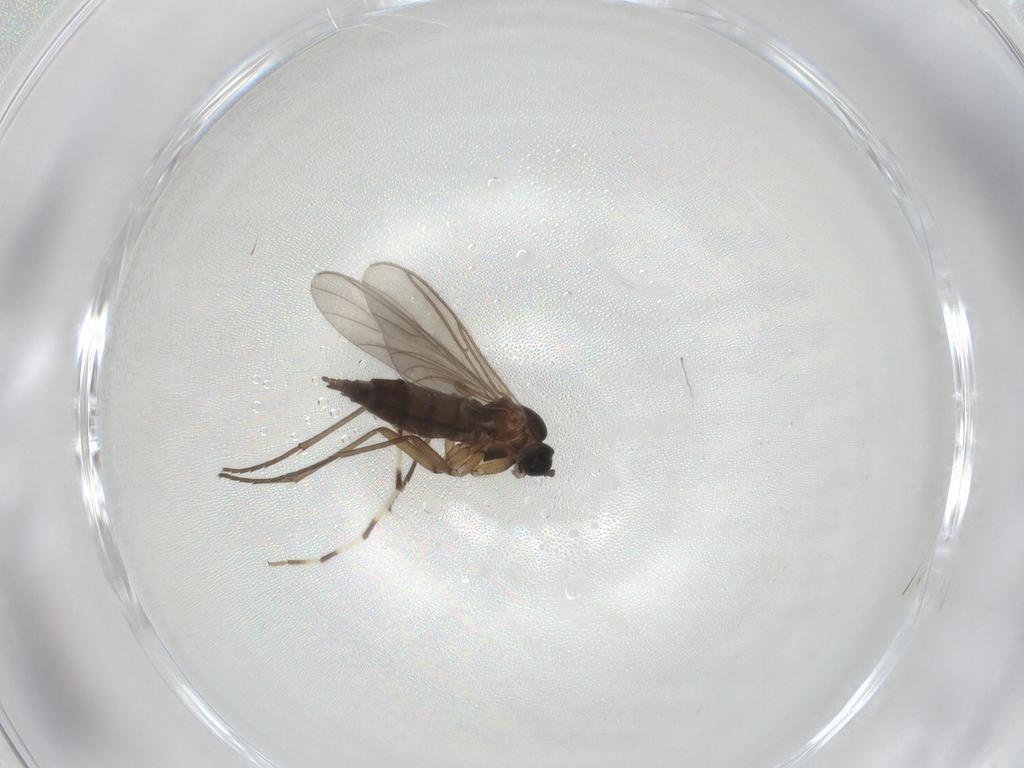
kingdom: Animalia
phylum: Arthropoda
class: Insecta
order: Diptera
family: Sciaridae
